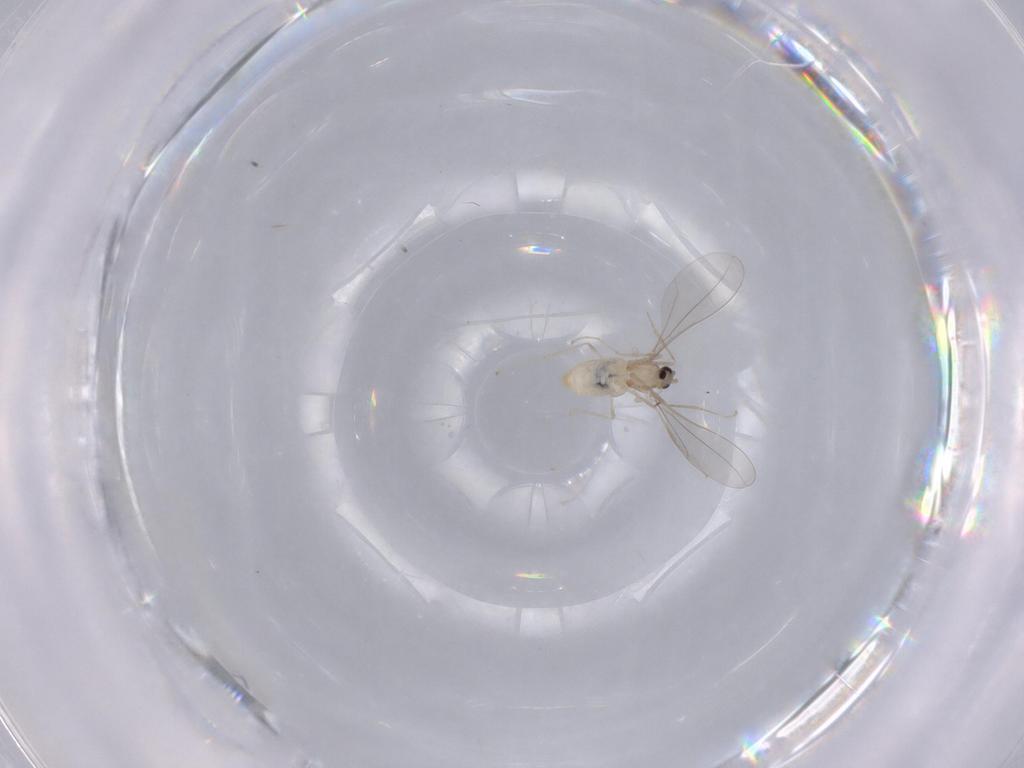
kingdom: Animalia
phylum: Arthropoda
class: Insecta
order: Diptera
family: Cecidomyiidae
